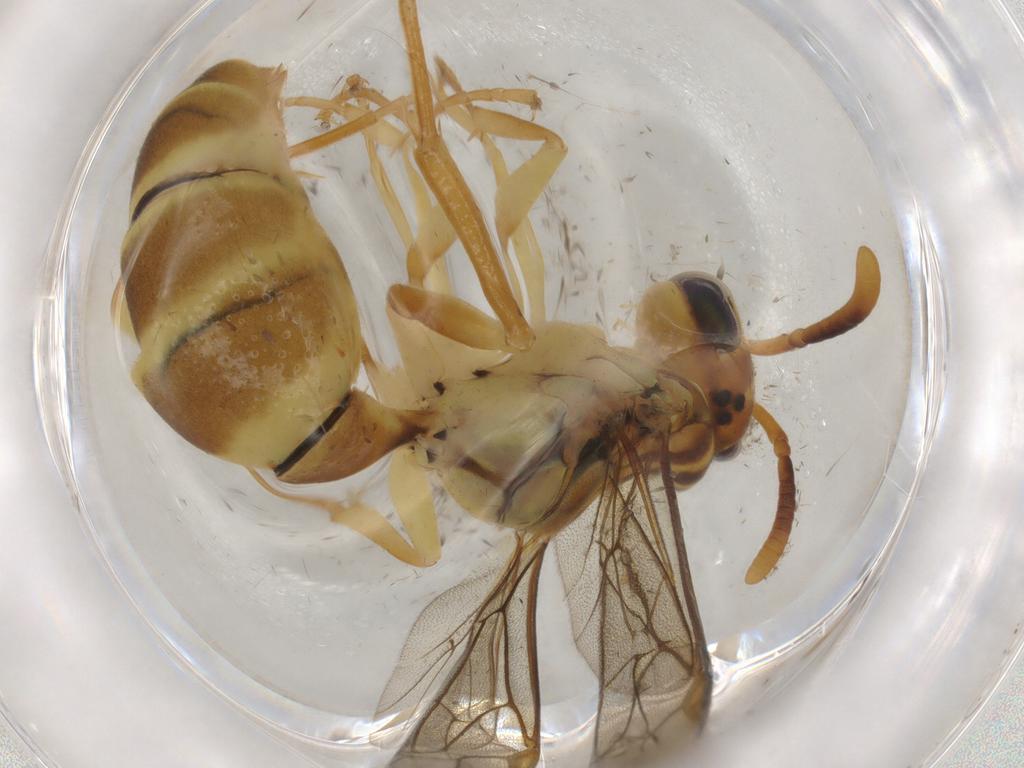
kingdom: Animalia
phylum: Arthropoda
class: Insecta
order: Hymenoptera
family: Vespidae
